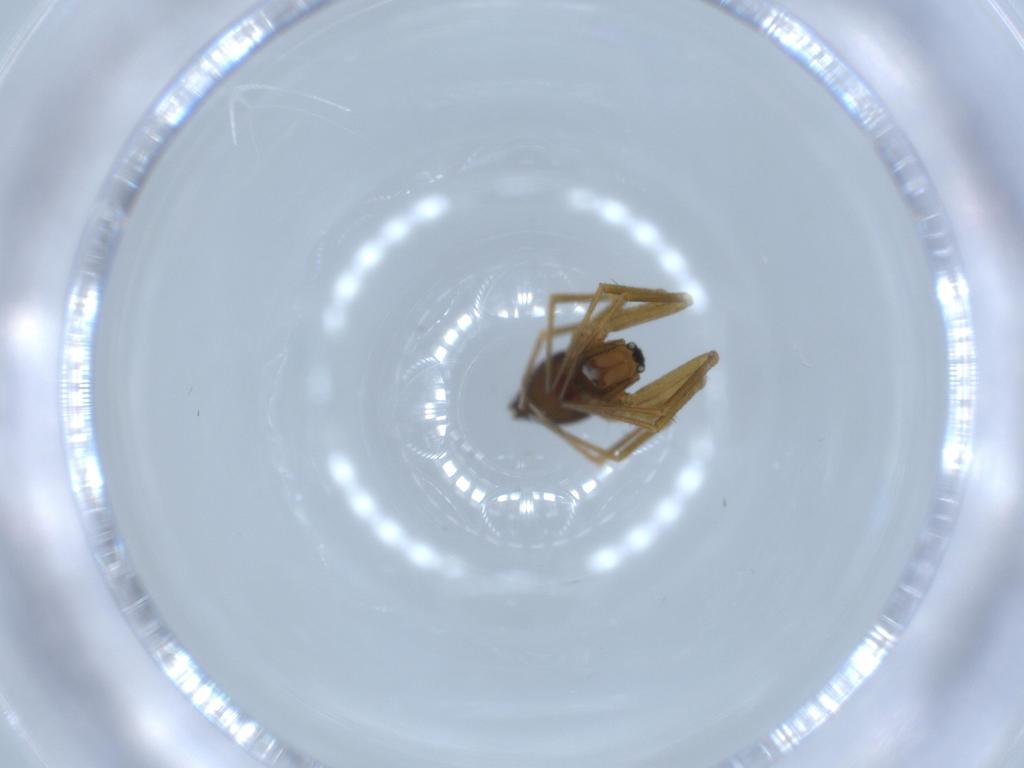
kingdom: Animalia
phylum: Arthropoda
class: Arachnida
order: Araneae
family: Linyphiidae
